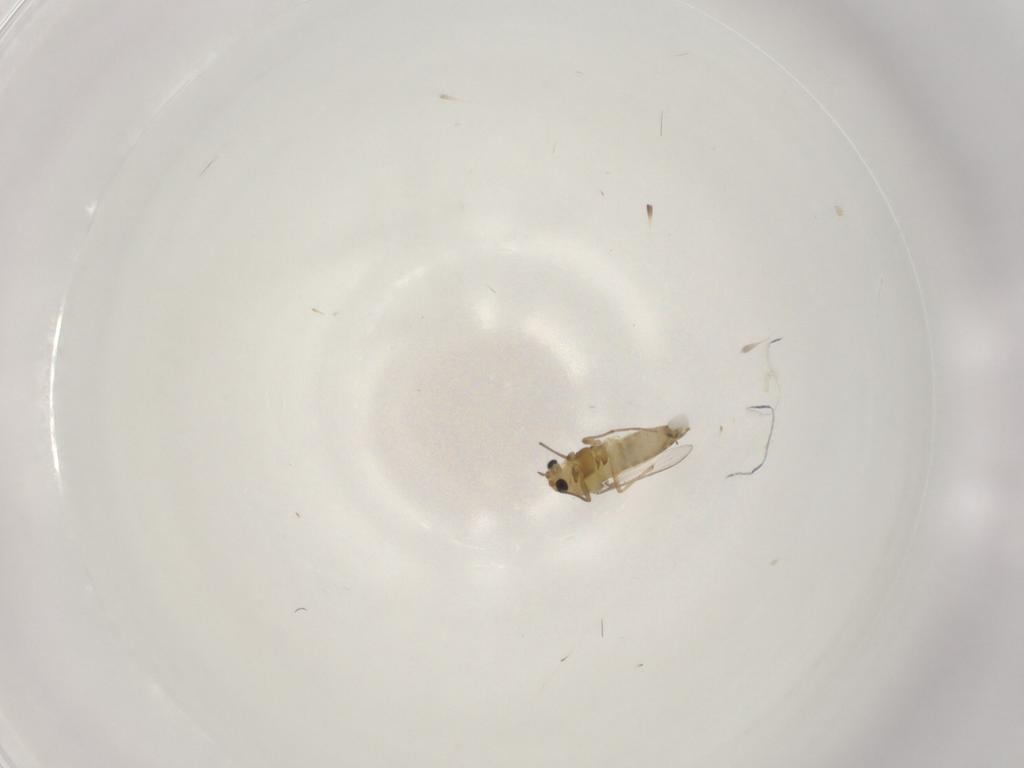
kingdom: Animalia
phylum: Arthropoda
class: Insecta
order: Diptera
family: Chironomidae
